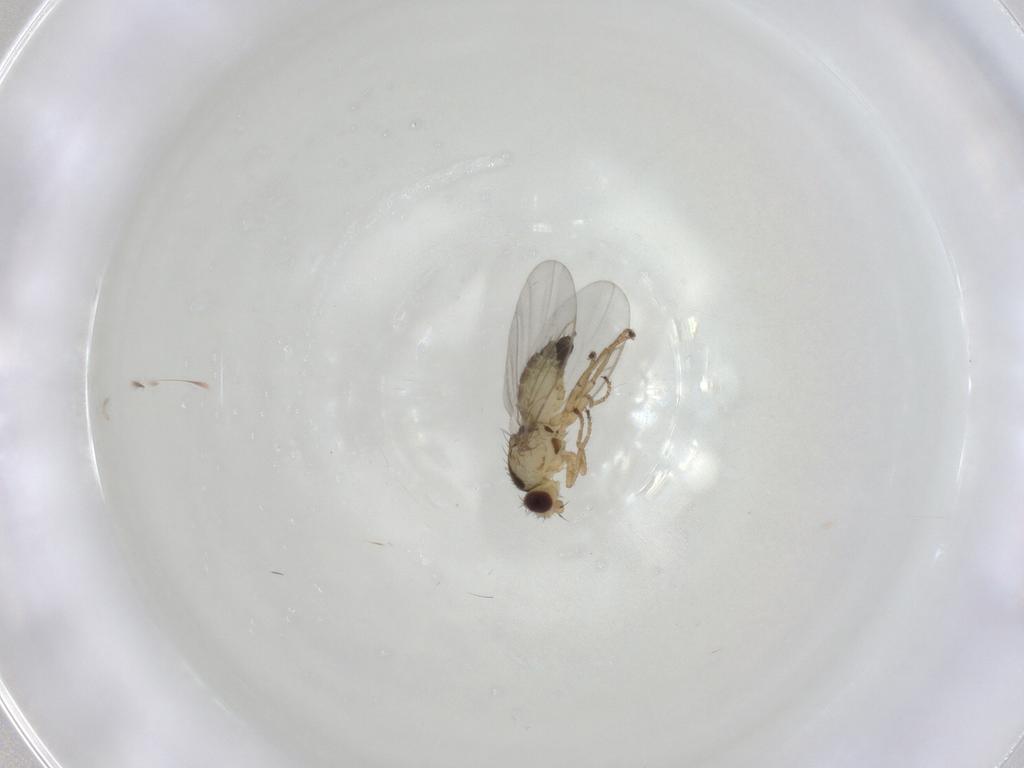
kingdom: Animalia
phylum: Arthropoda
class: Insecta
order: Diptera
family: Agromyzidae
